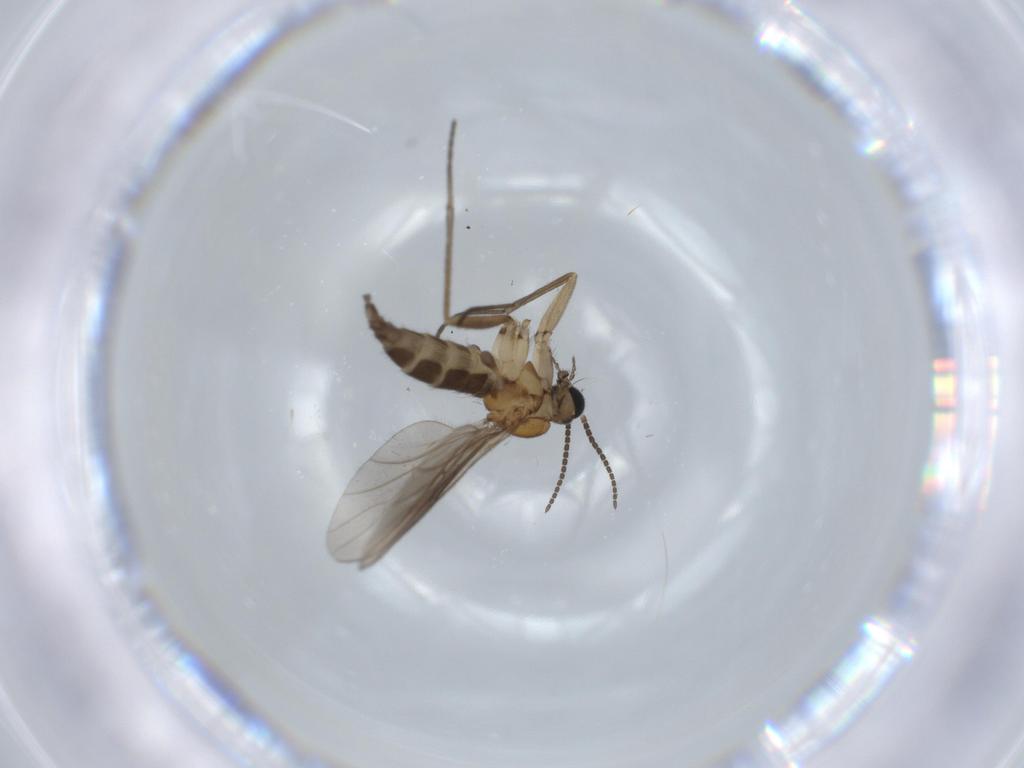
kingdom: Animalia
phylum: Arthropoda
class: Insecta
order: Diptera
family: Sciaridae
